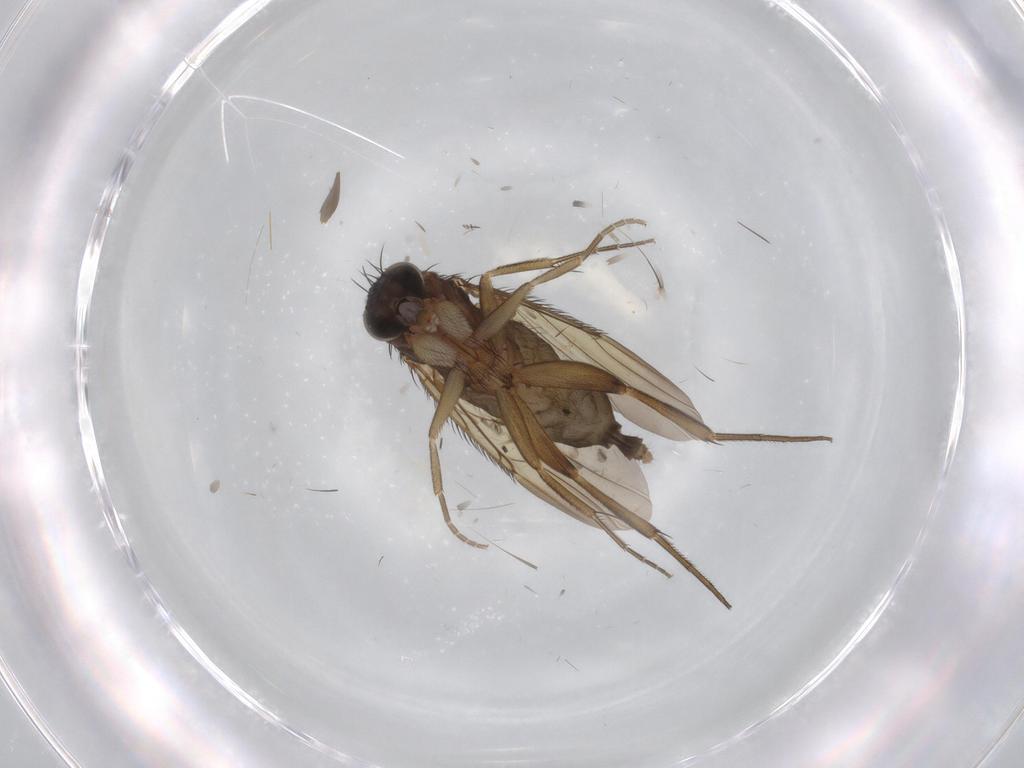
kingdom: Animalia
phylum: Arthropoda
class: Insecta
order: Diptera
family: Phoridae
